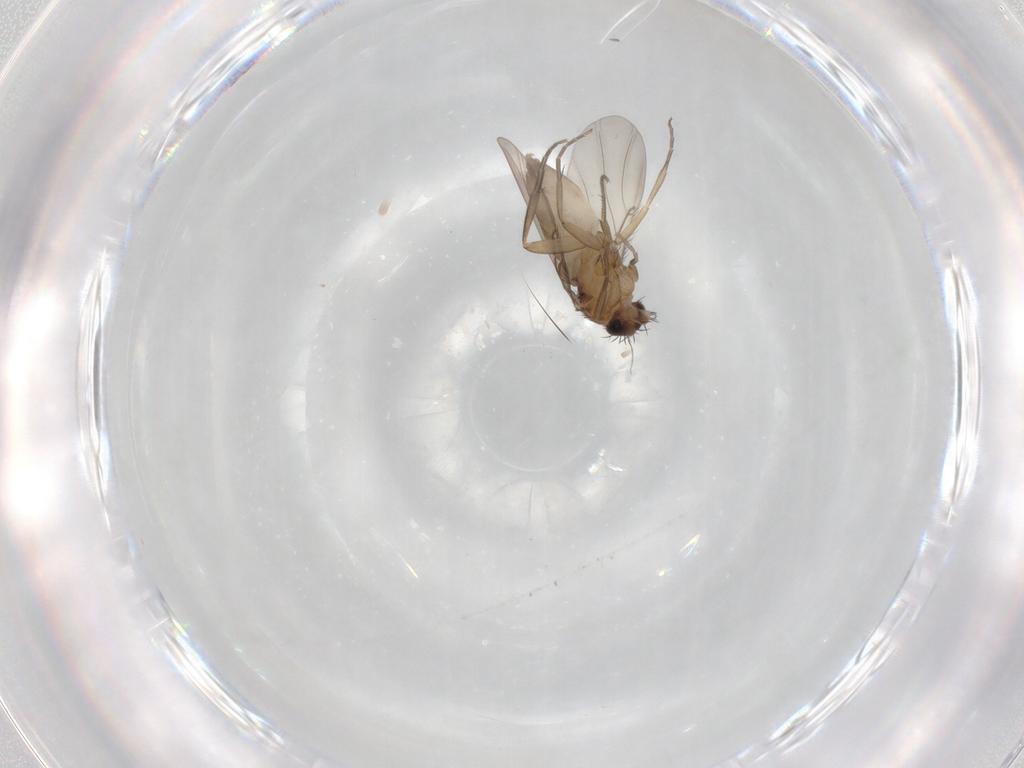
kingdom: Animalia
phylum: Arthropoda
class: Insecta
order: Diptera
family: Phoridae
